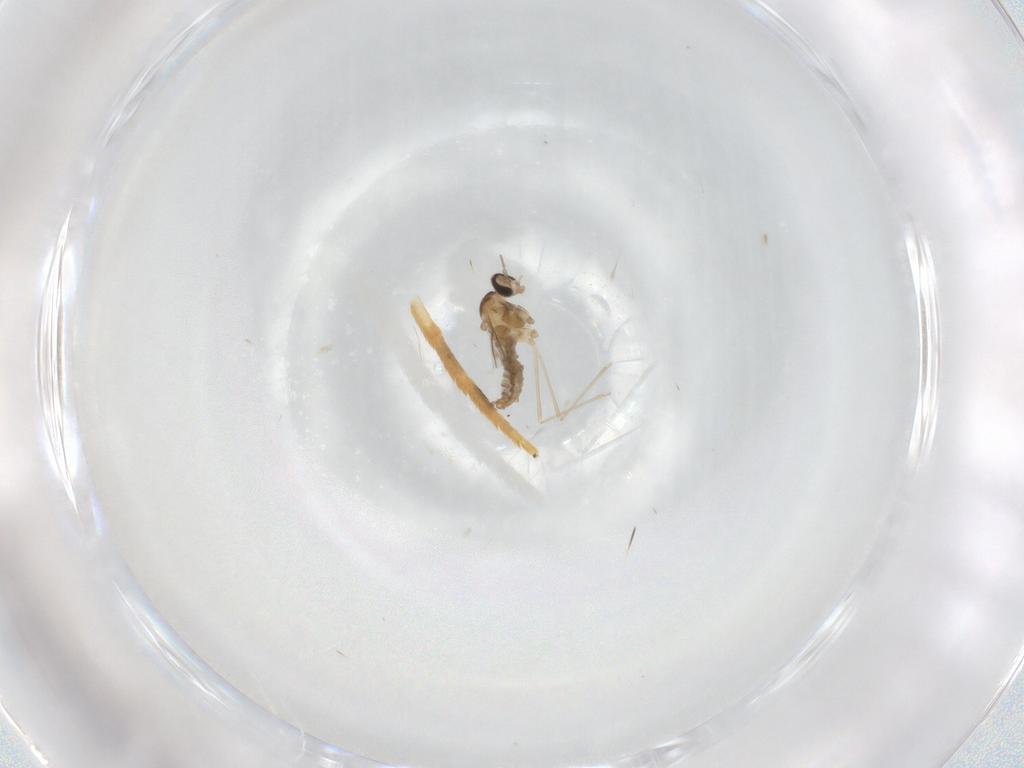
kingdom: Animalia
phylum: Arthropoda
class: Insecta
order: Diptera
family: Cecidomyiidae
